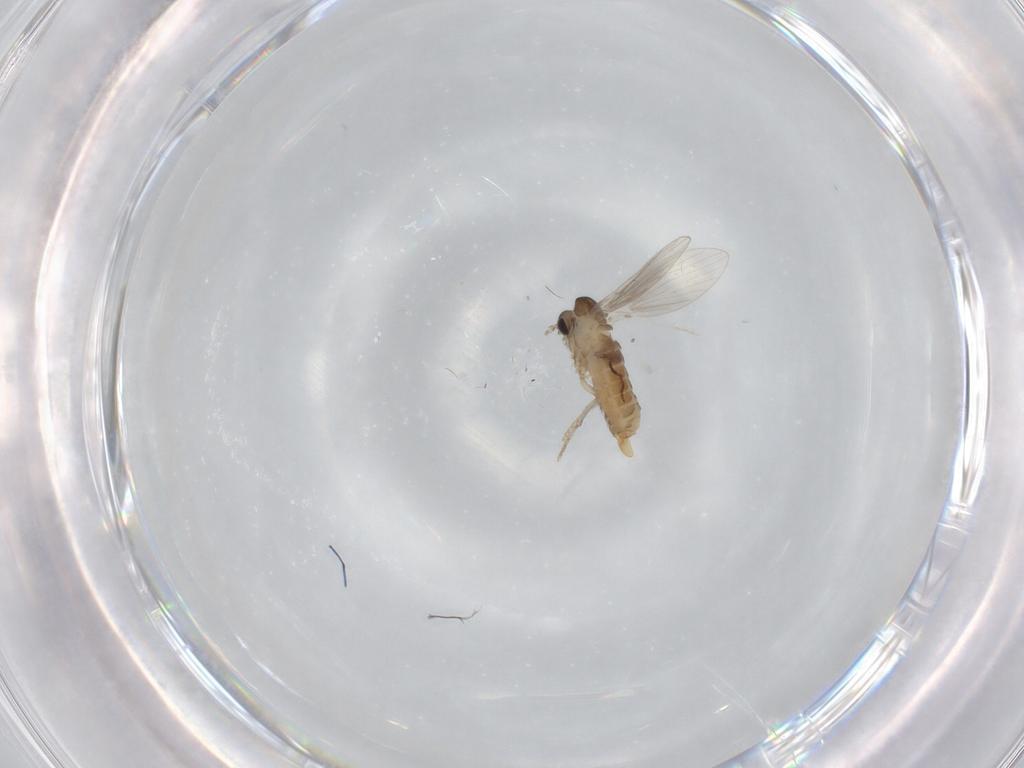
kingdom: Animalia
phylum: Arthropoda
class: Insecta
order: Diptera
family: Cecidomyiidae
